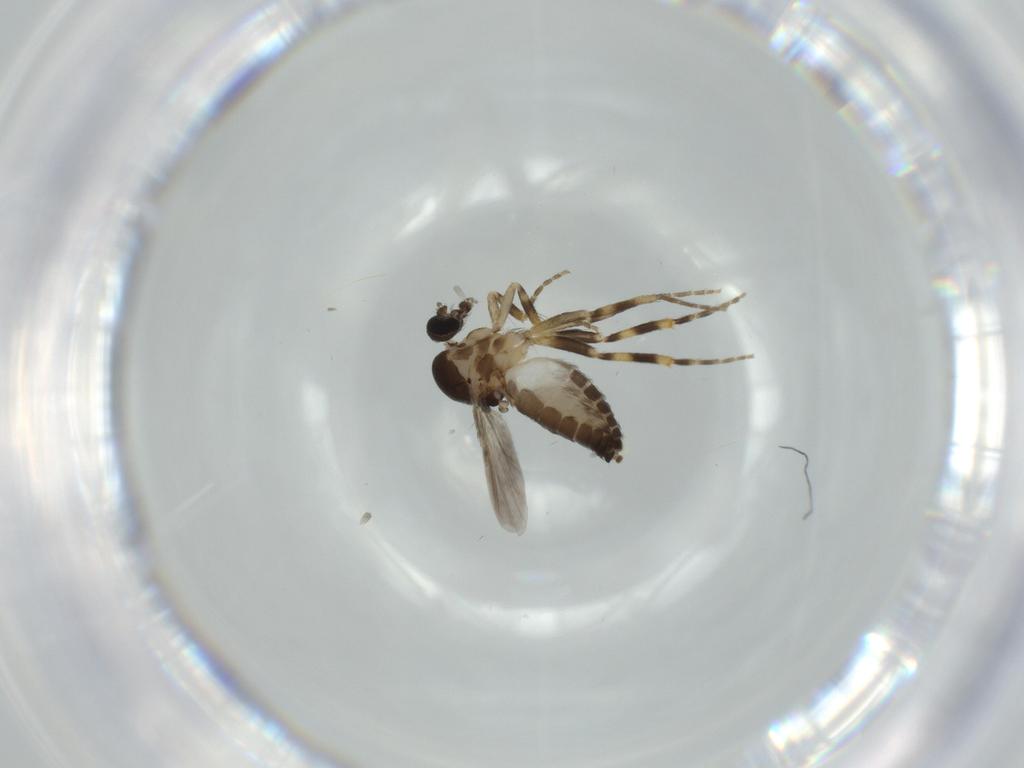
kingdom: Animalia
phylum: Arthropoda
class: Insecta
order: Diptera
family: Ceratopogonidae
